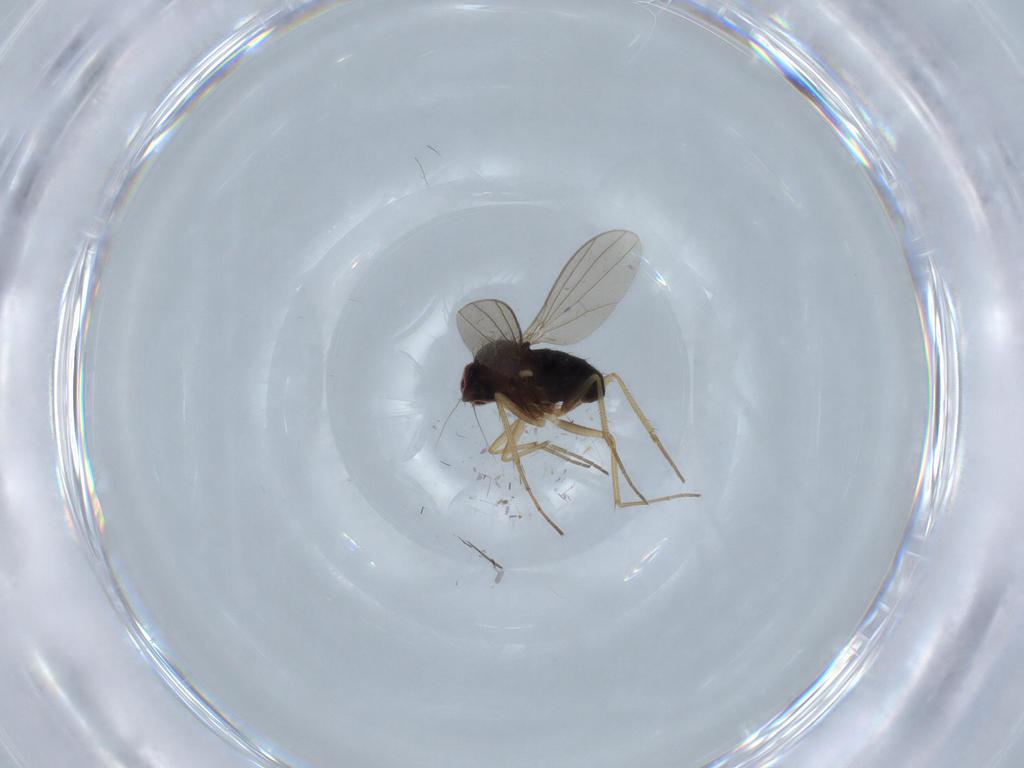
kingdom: Animalia
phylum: Arthropoda
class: Insecta
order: Diptera
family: Dolichopodidae
